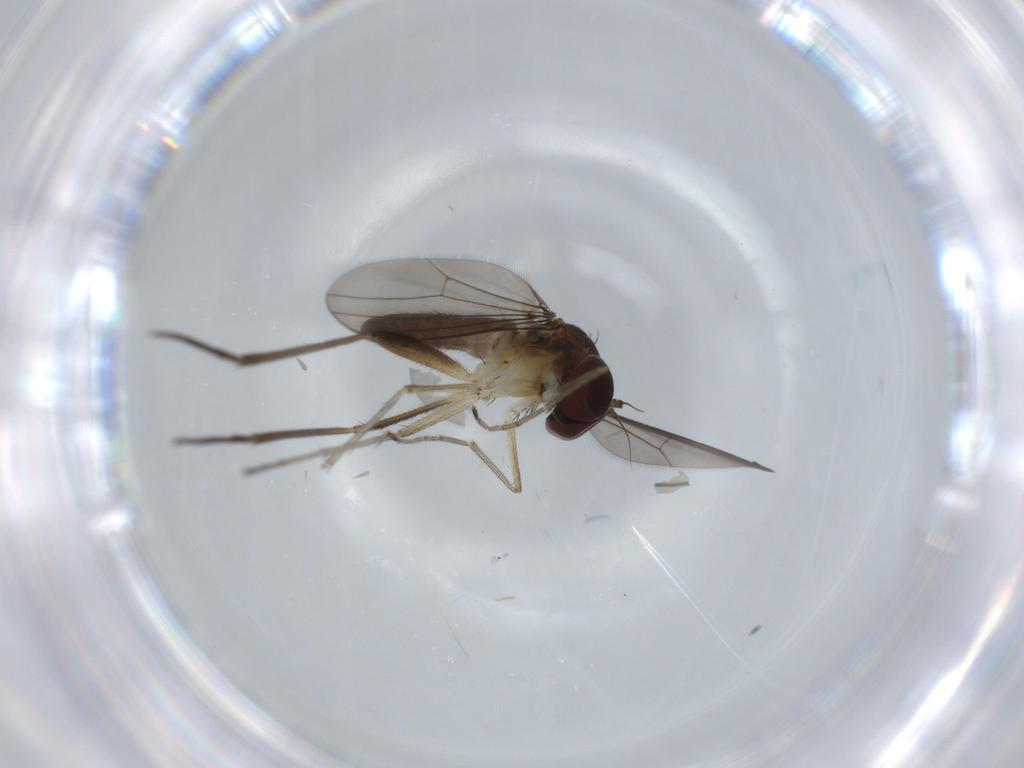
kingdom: Animalia
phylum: Arthropoda
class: Insecta
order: Diptera
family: Dolichopodidae
